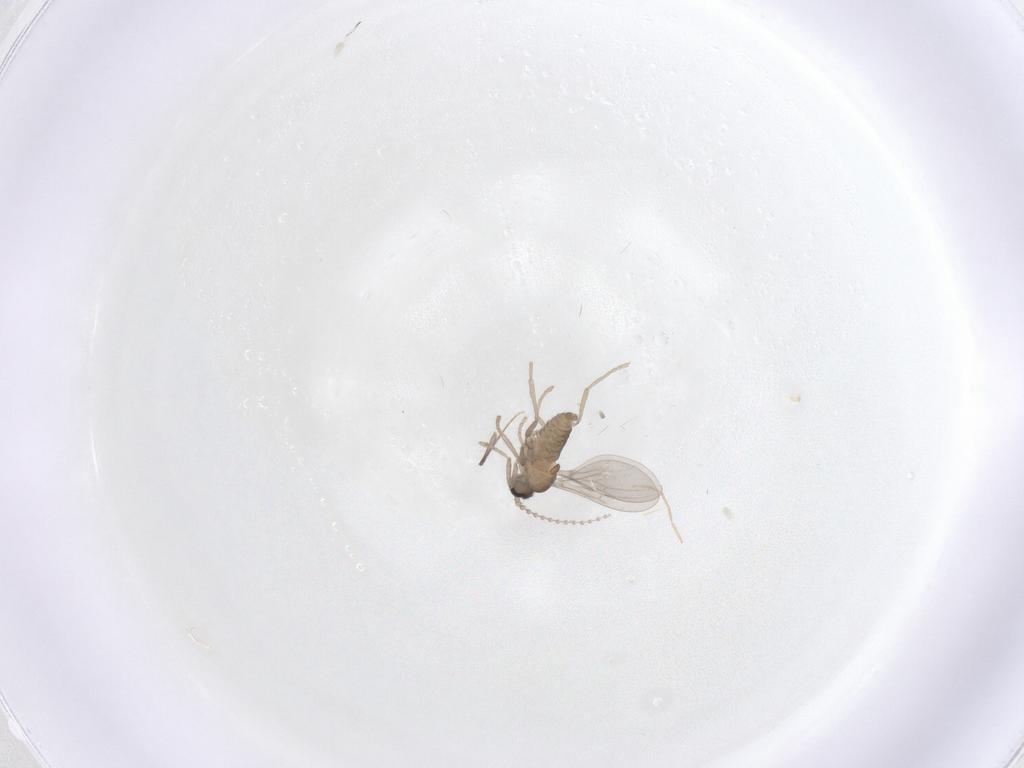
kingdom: Animalia
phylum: Arthropoda
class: Insecta
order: Diptera
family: Cecidomyiidae
